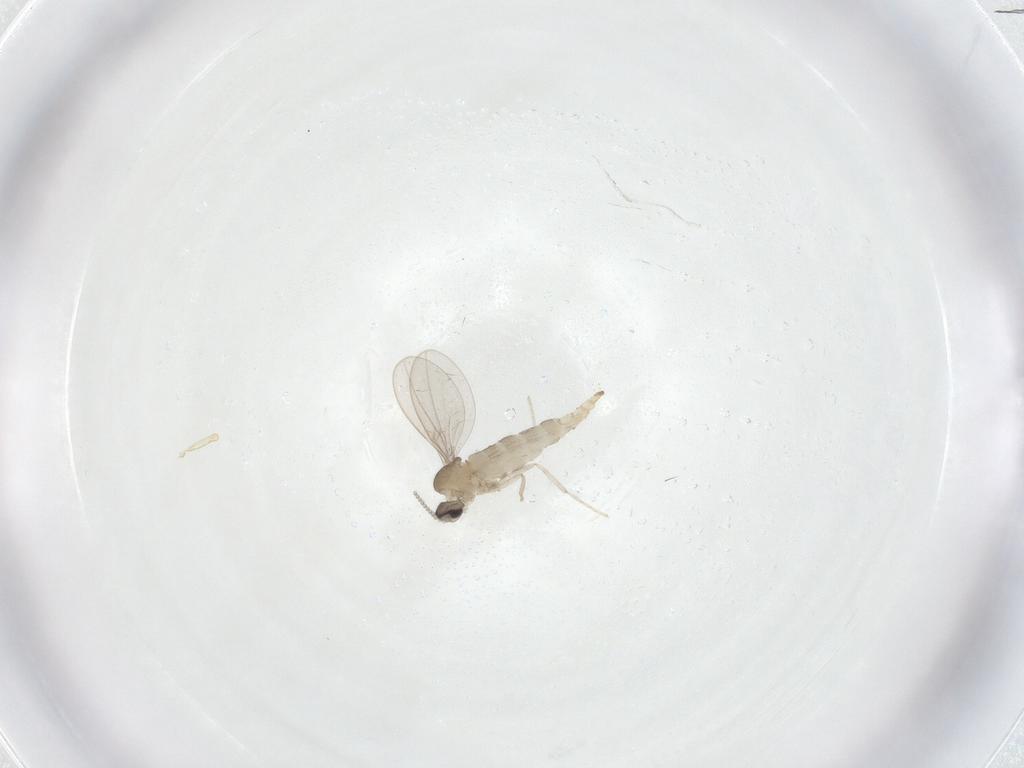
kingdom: Animalia
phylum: Arthropoda
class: Insecta
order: Diptera
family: Cecidomyiidae
